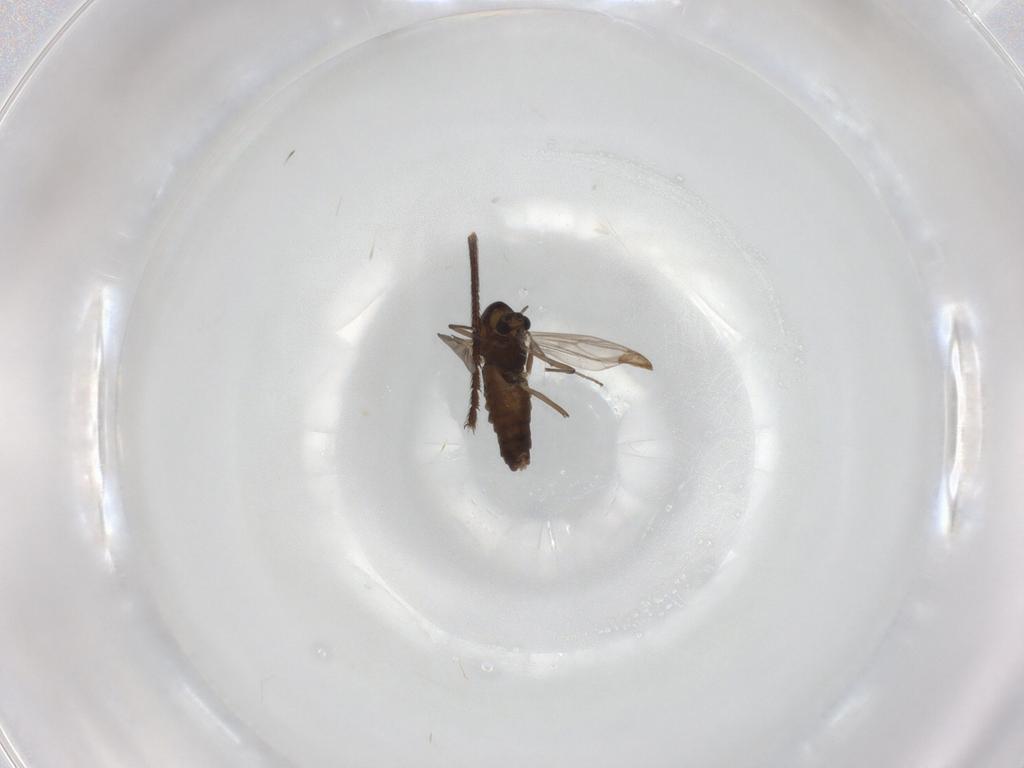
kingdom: Animalia
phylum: Arthropoda
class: Insecta
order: Diptera
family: Chironomidae
